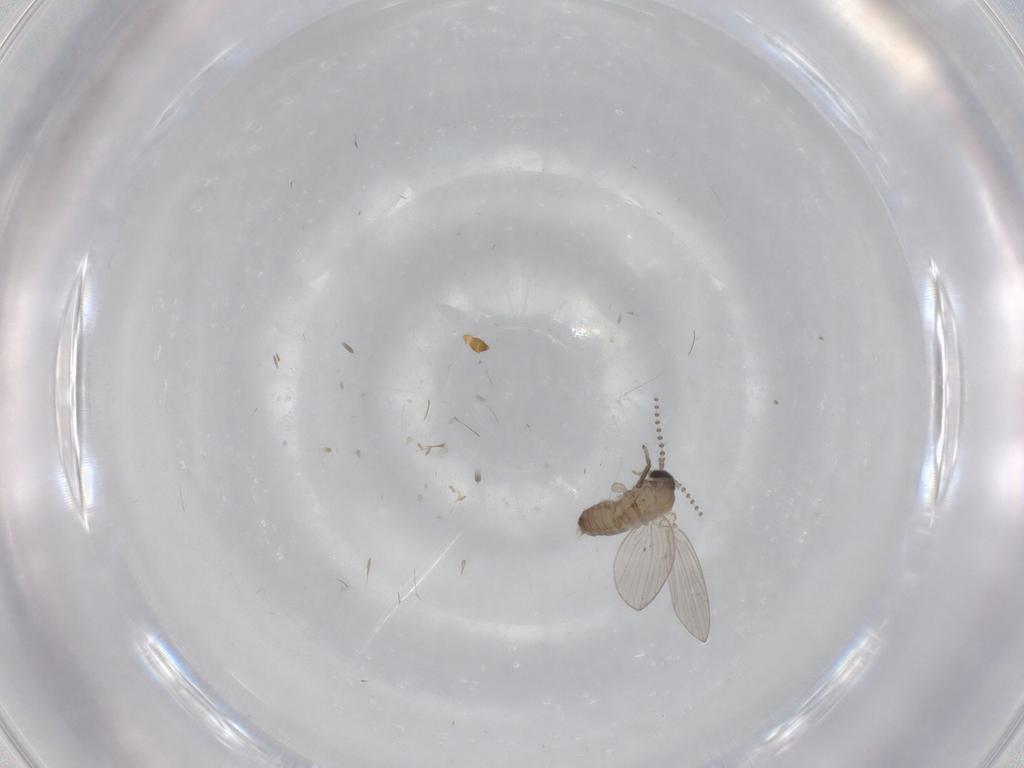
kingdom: Animalia
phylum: Arthropoda
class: Insecta
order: Diptera
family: Psychodidae
